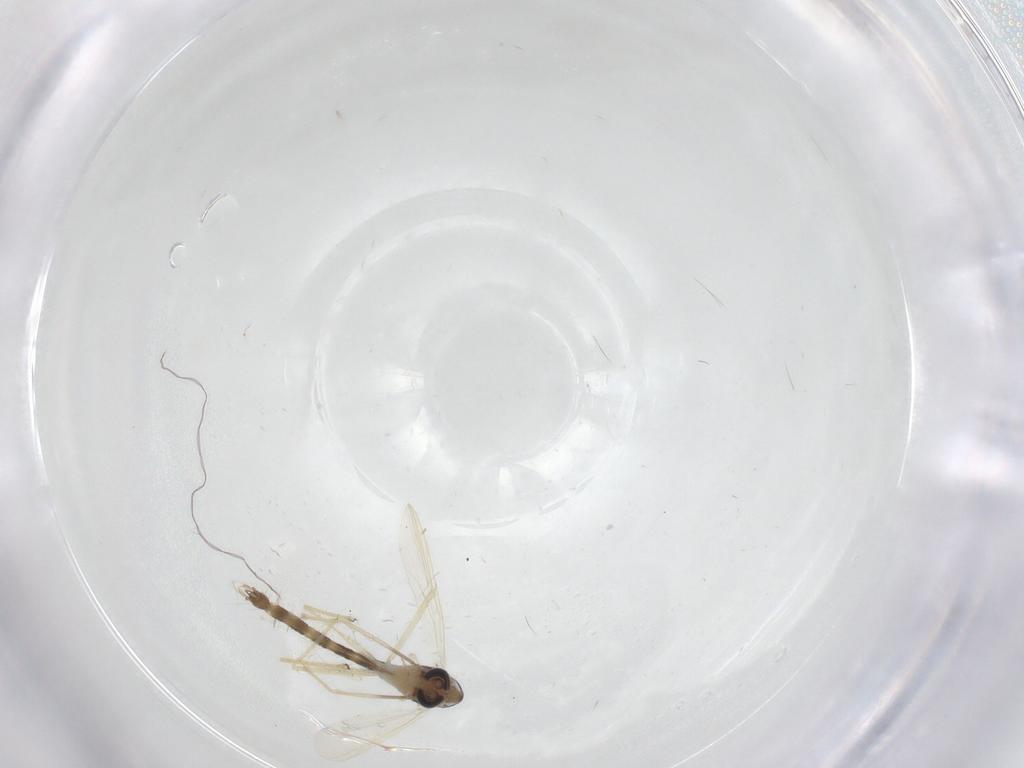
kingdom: Animalia
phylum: Arthropoda
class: Insecta
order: Diptera
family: Chironomidae
